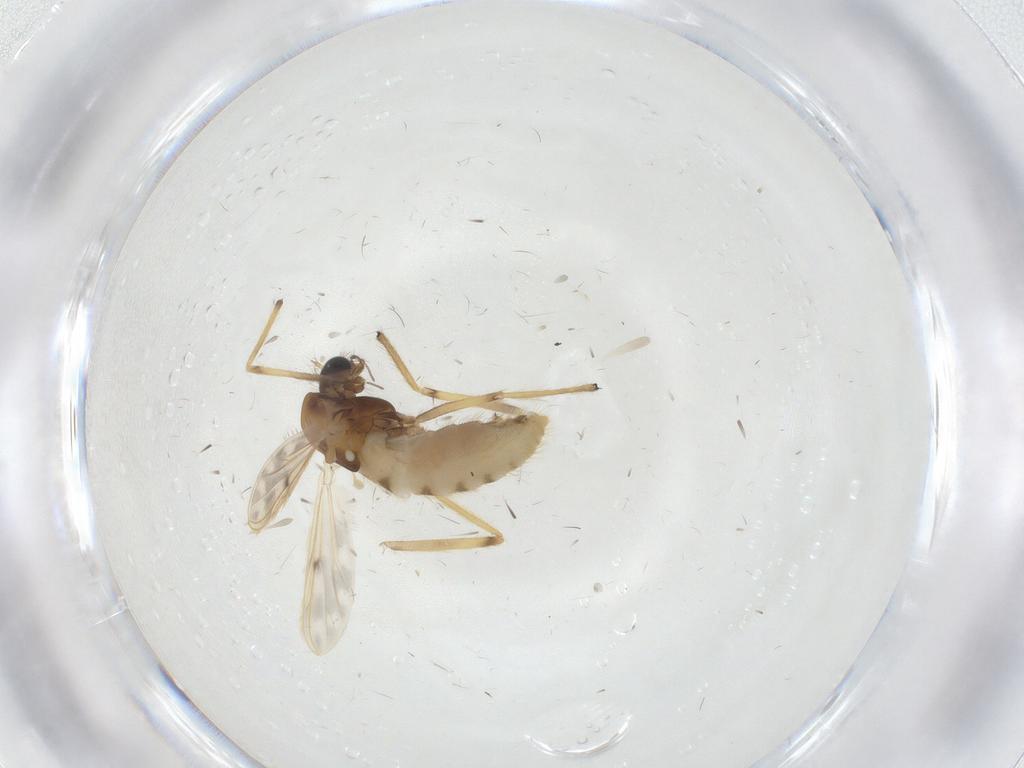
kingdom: Animalia
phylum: Arthropoda
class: Insecta
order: Diptera
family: Chironomidae
